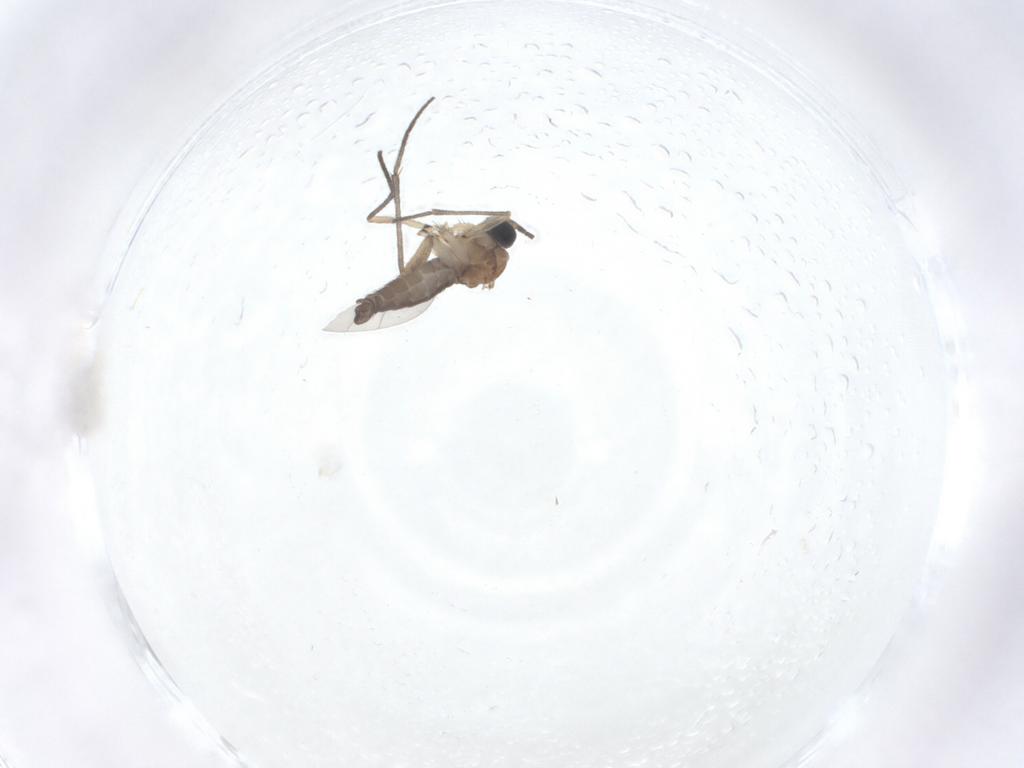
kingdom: Animalia
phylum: Arthropoda
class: Insecta
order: Diptera
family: Sciaridae
